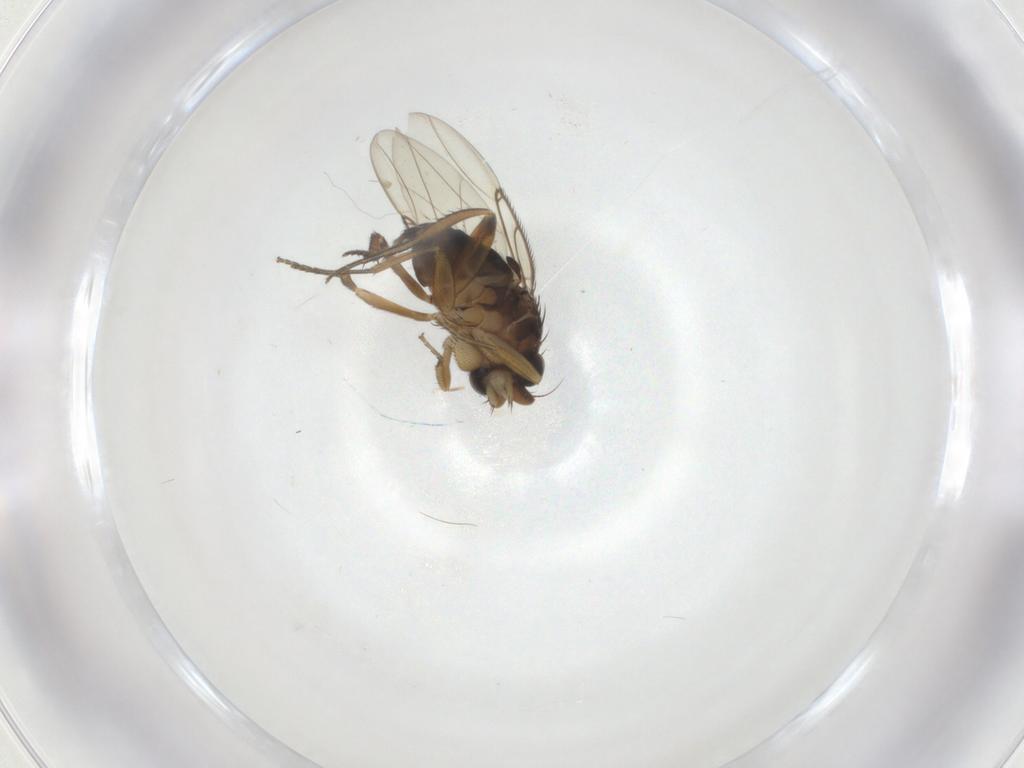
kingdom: Animalia
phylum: Arthropoda
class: Insecta
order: Diptera
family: Phoridae
